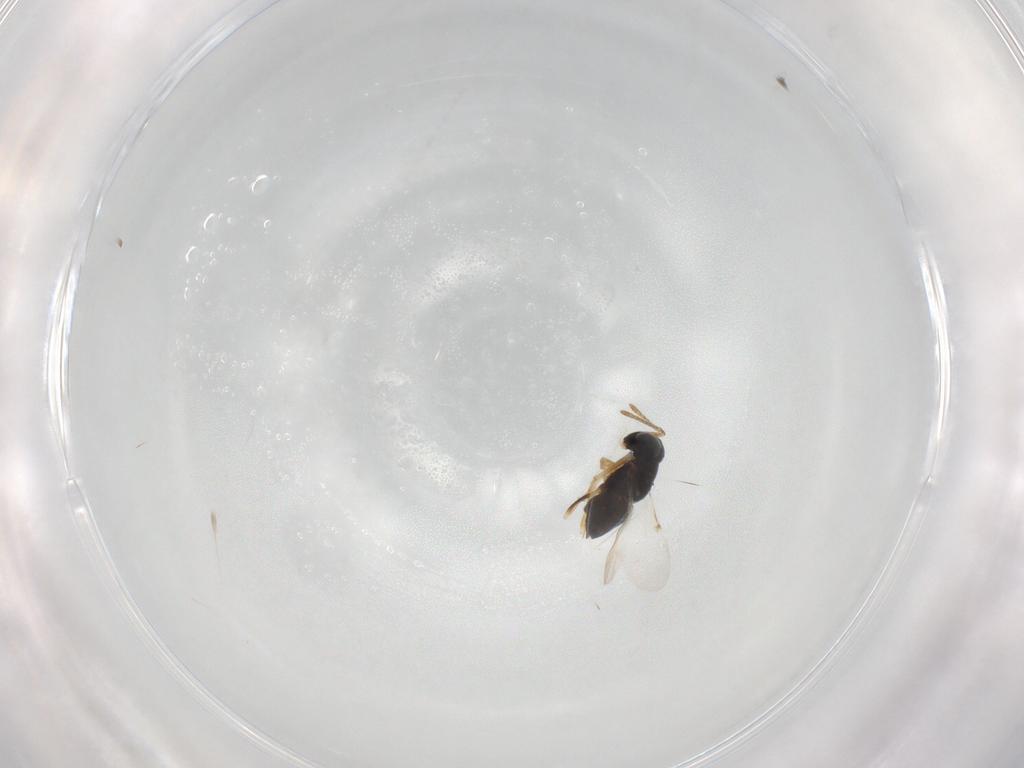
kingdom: Animalia
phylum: Arthropoda
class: Insecta
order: Hymenoptera
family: Encyrtidae
